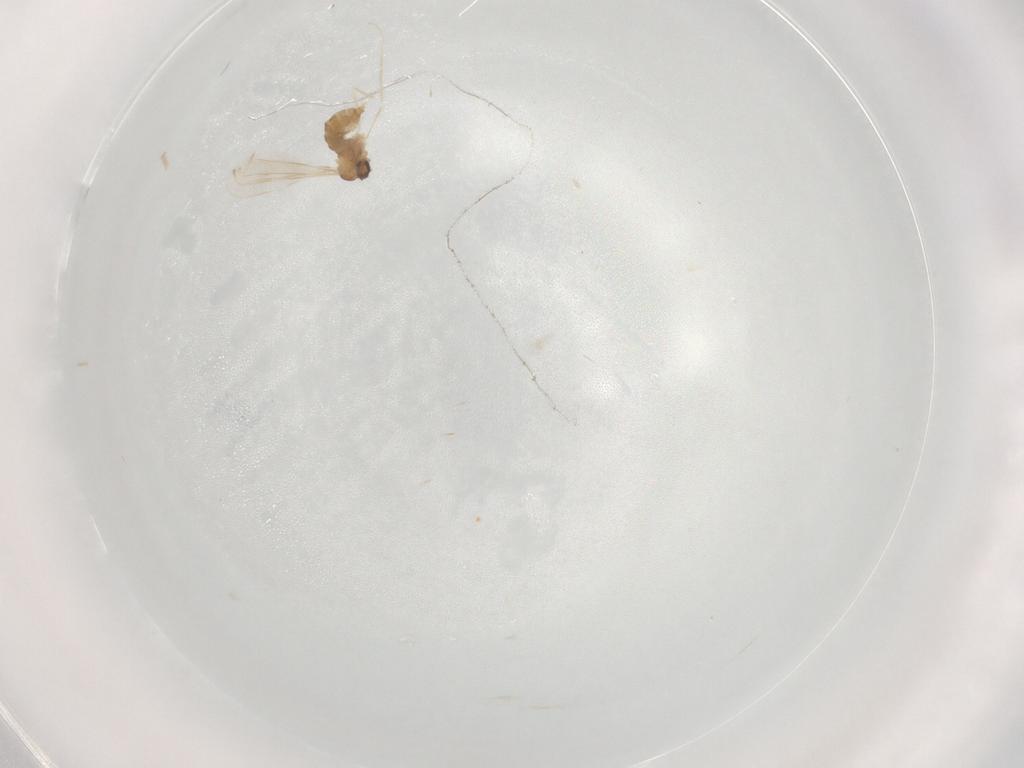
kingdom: Animalia
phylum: Arthropoda
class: Insecta
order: Diptera
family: Cecidomyiidae
